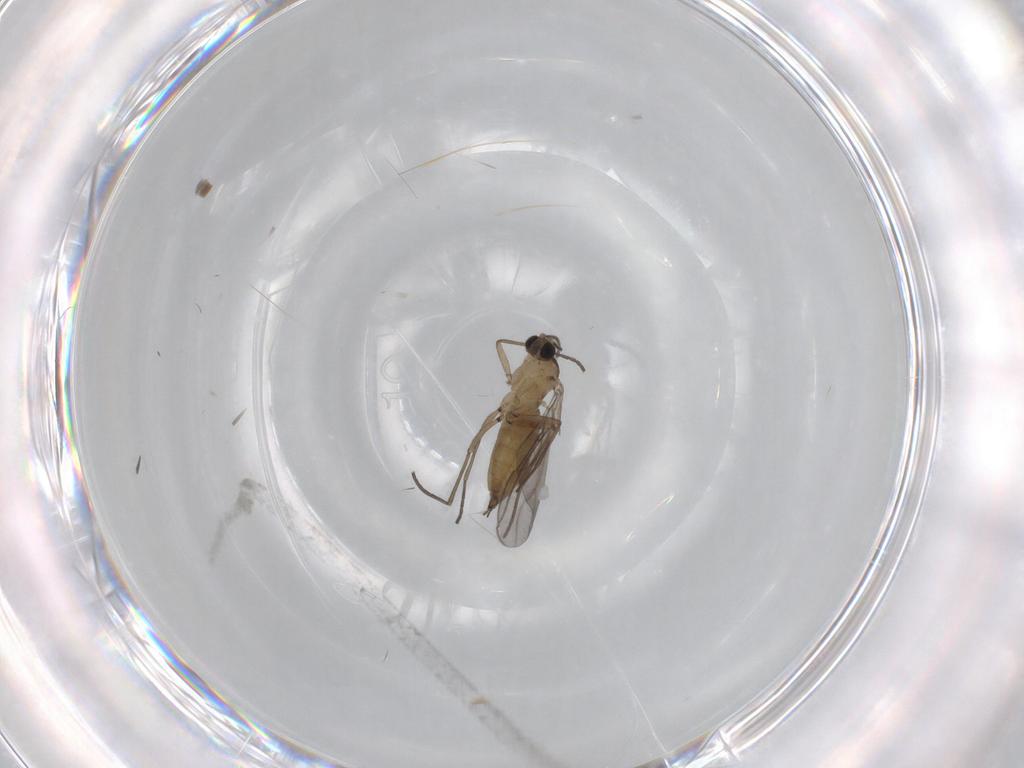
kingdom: Animalia
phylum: Arthropoda
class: Insecta
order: Diptera
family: Sciaridae
